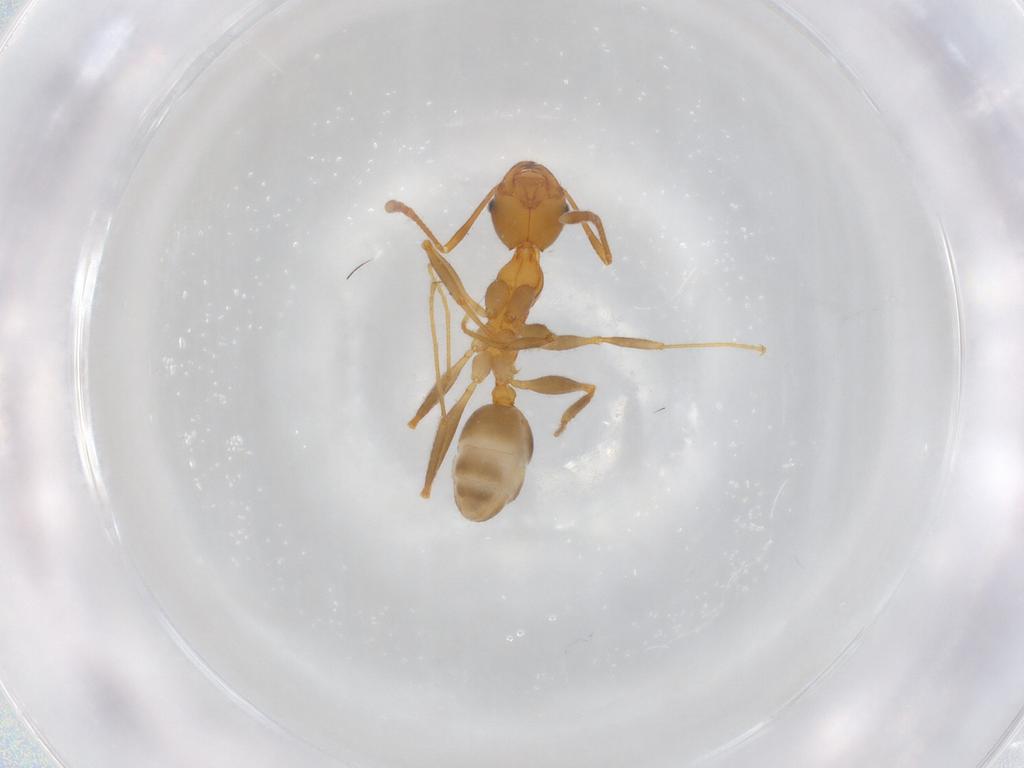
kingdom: Animalia
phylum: Arthropoda
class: Insecta
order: Hymenoptera
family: Formicidae
